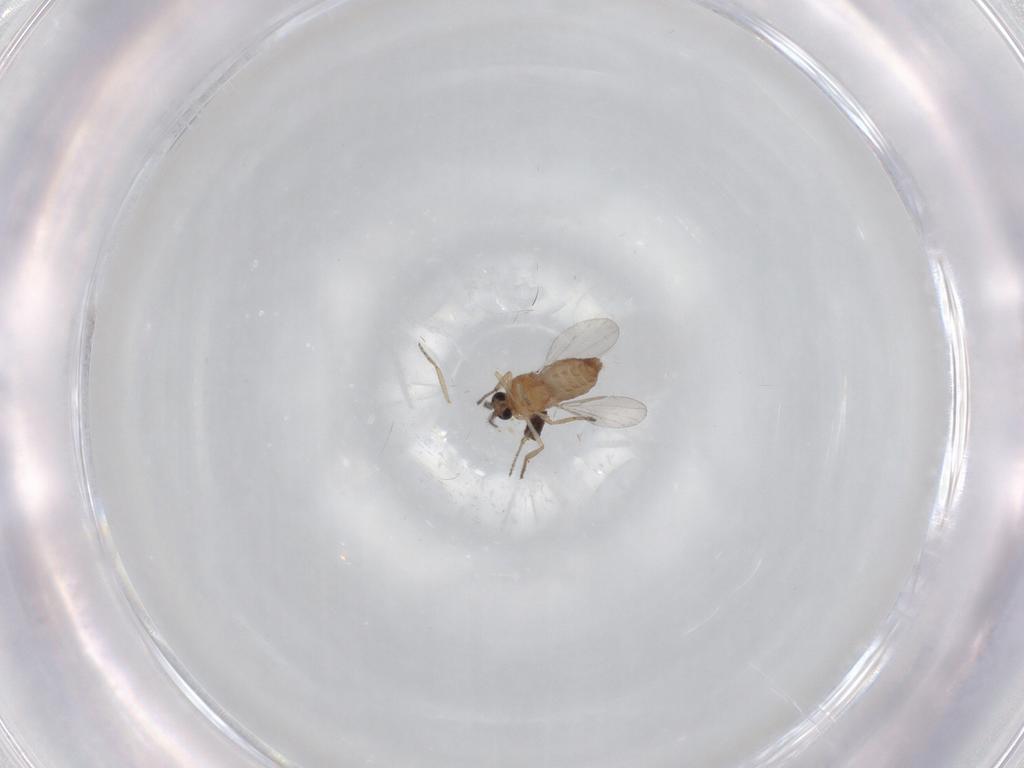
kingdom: Animalia
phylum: Arthropoda
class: Insecta
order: Diptera
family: Ceratopogonidae
